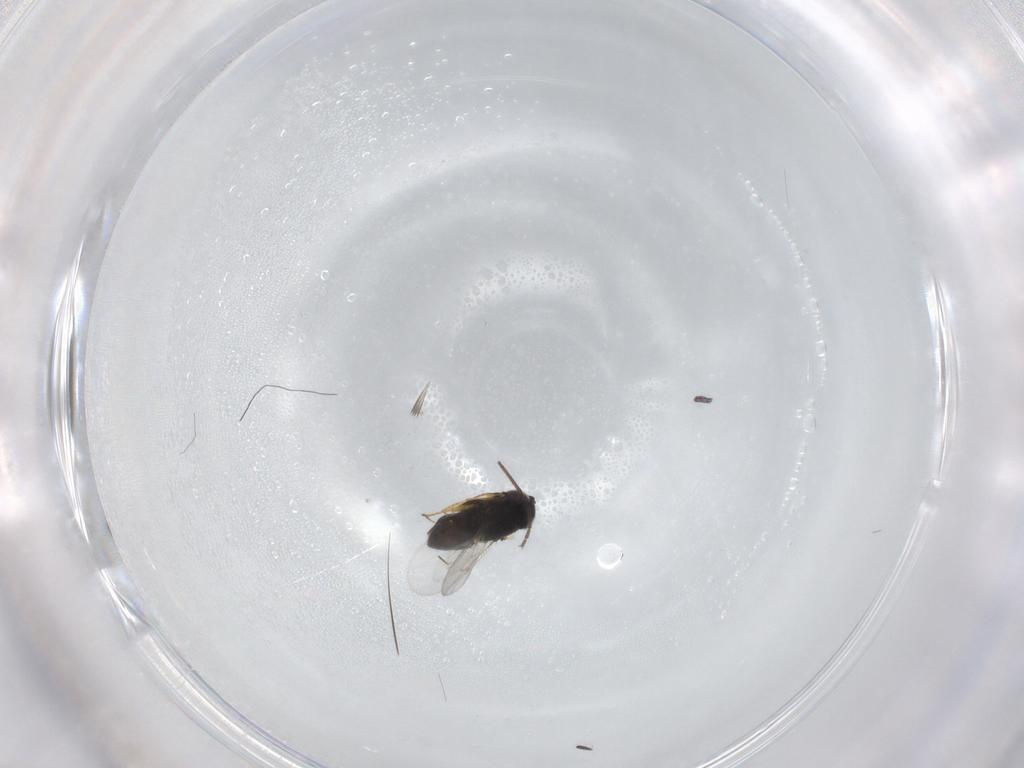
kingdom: Animalia
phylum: Arthropoda
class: Insecta
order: Hymenoptera
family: Ichneumonidae
